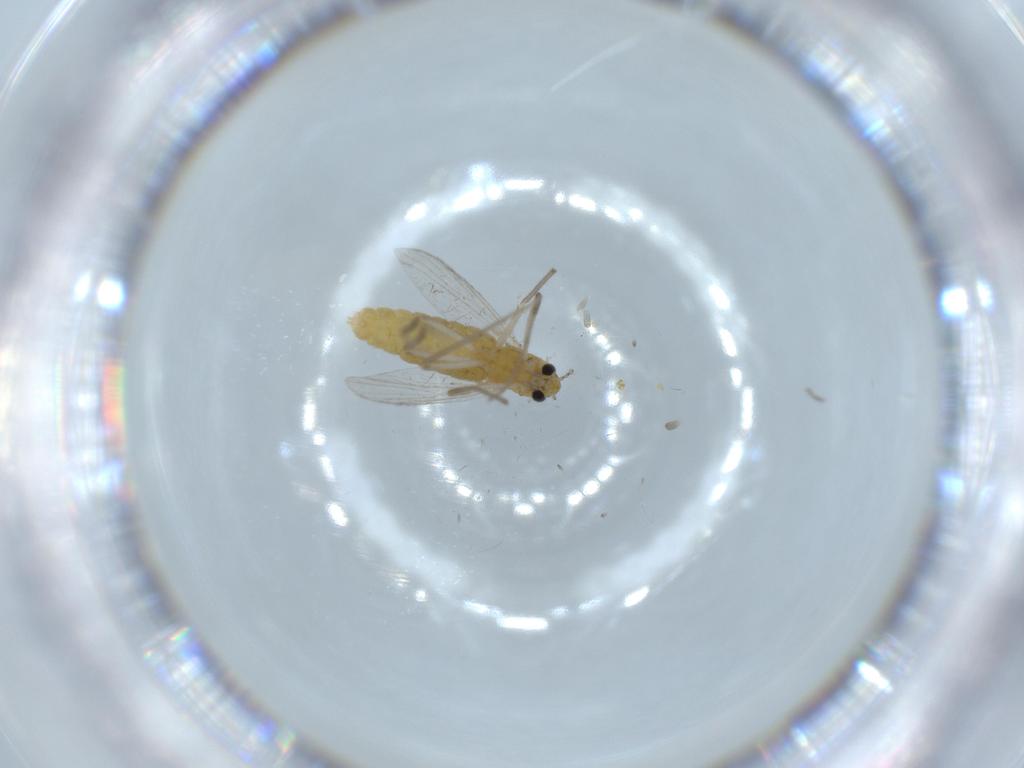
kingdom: Animalia
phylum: Arthropoda
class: Insecta
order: Diptera
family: Chironomidae
